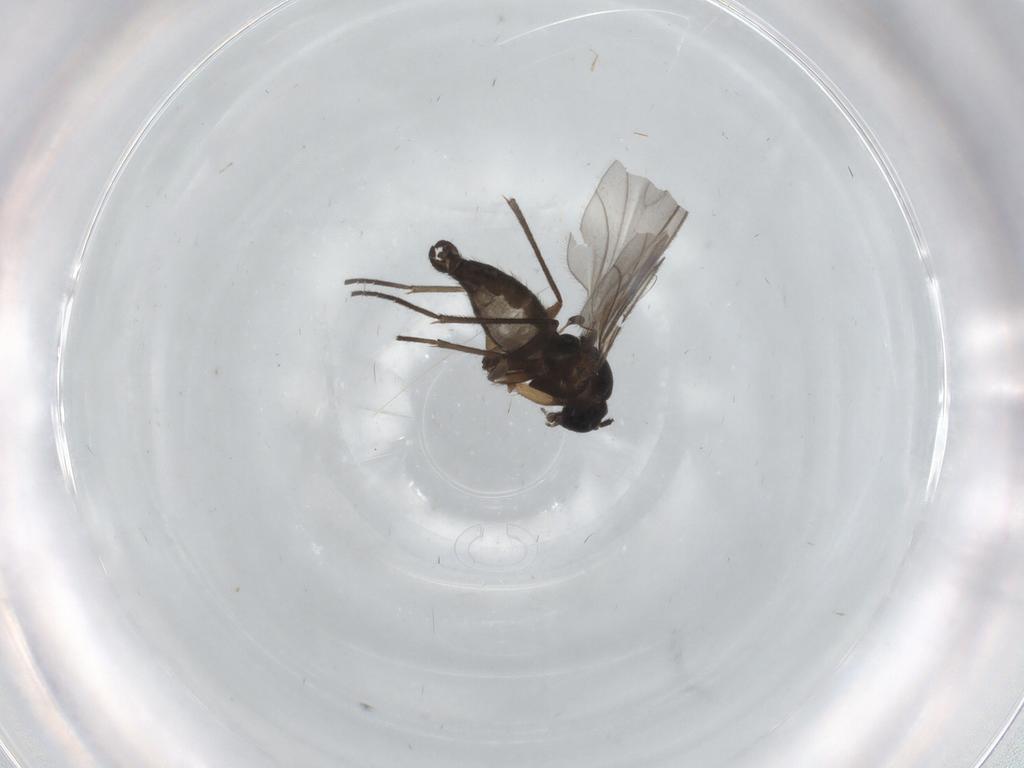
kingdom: Animalia
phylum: Arthropoda
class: Insecta
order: Diptera
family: Sciaridae
